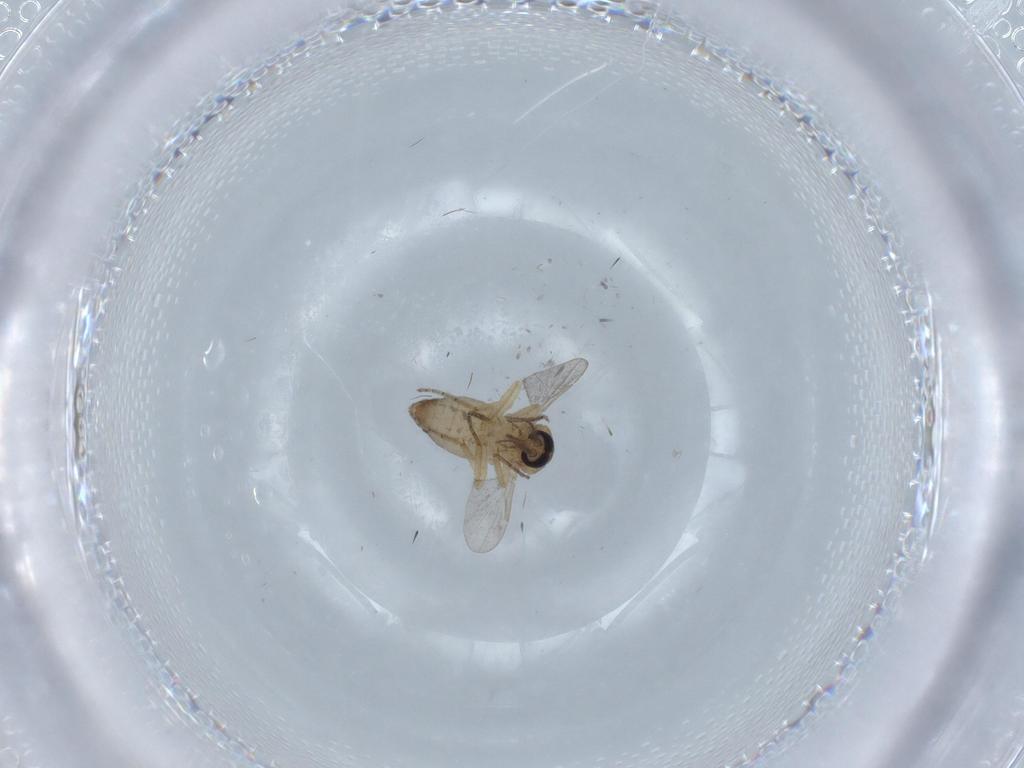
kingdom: Animalia
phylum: Arthropoda
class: Insecta
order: Diptera
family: Ceratopogonidae
